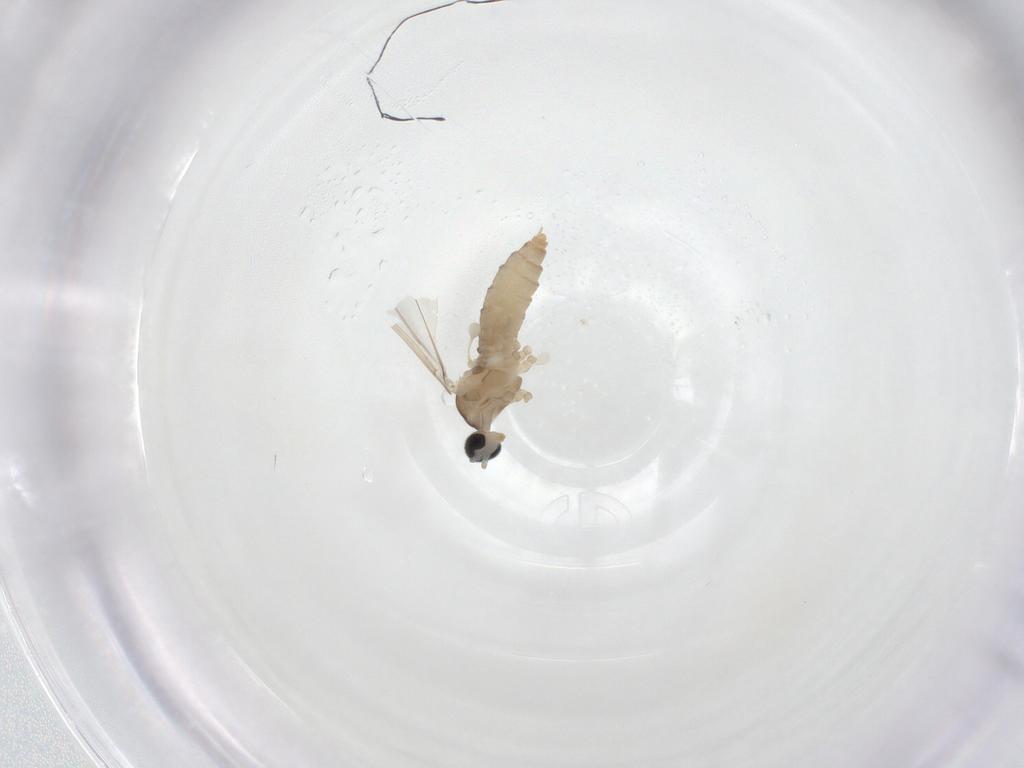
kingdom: Animalia
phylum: Arthropoda
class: Insecta
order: Diptera
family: Cecidomyiidae
